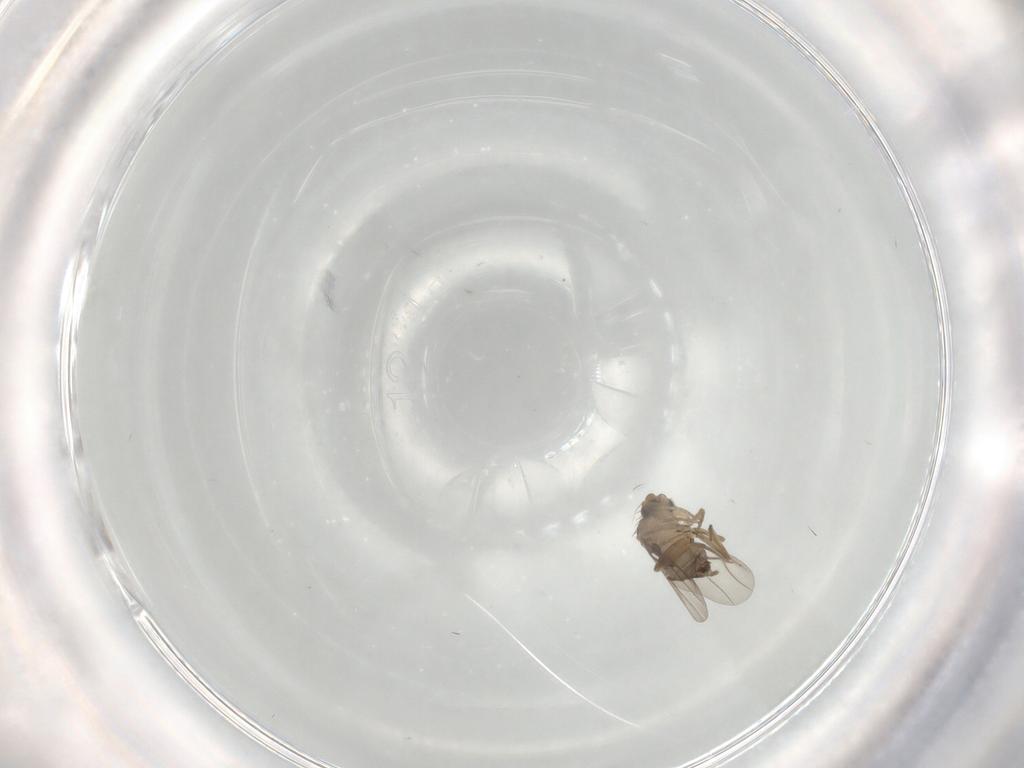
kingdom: Animalia
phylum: Arthropoda
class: Insecta
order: Diptera
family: Phoridae
